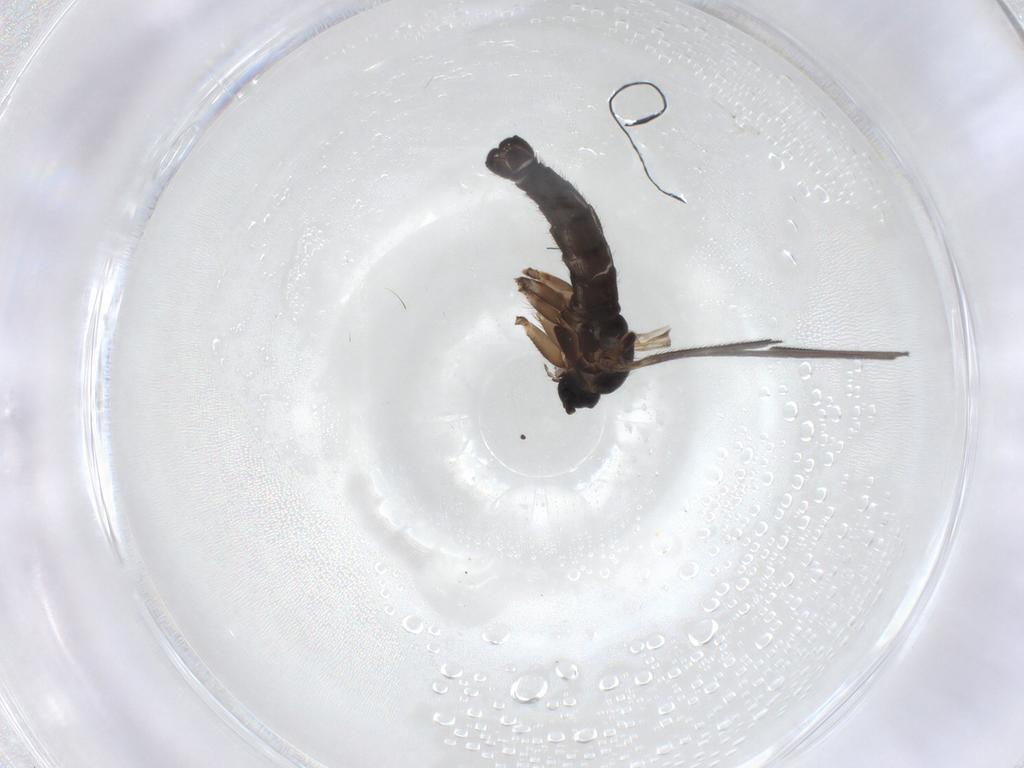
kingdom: Animalia
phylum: Arthropoda
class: Insecta
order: Diptera
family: Sciaridae
